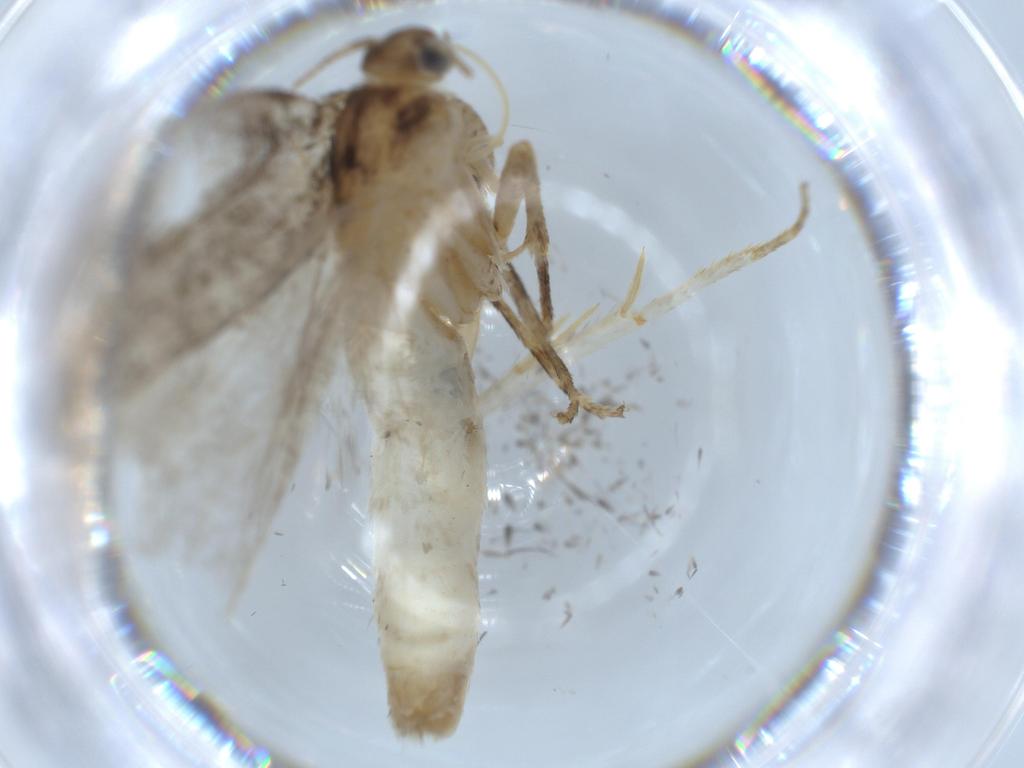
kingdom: Animalia
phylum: Arthropoda
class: Insecta
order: Lepidoptera
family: Gracillariidae
